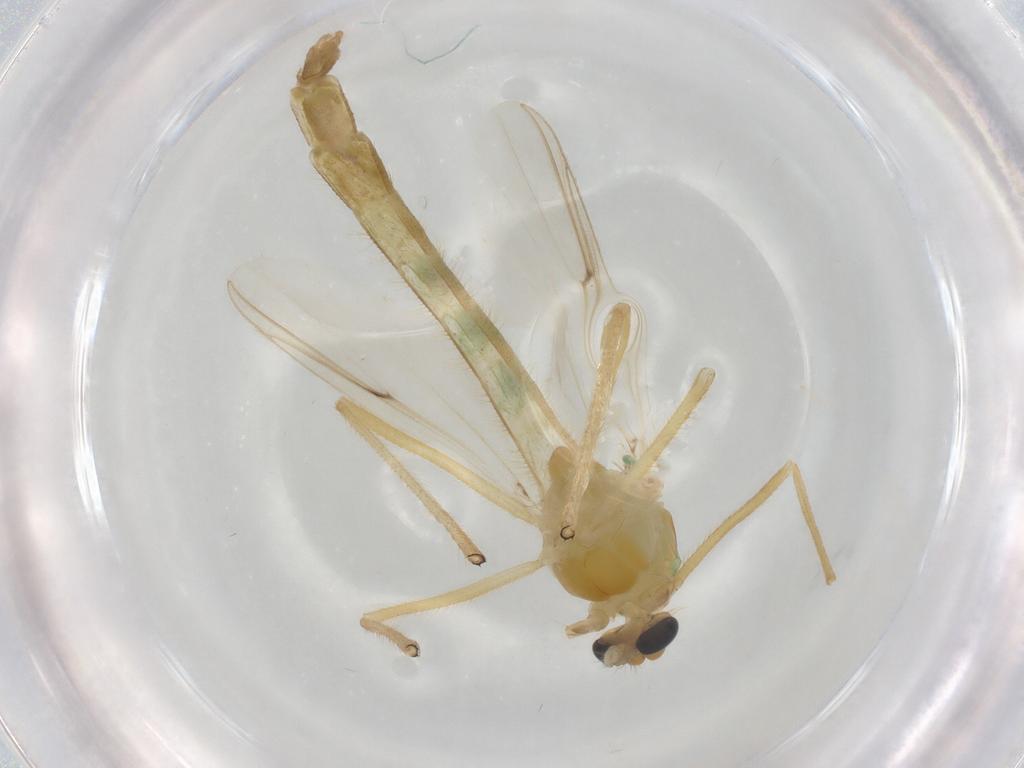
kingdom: Animalia
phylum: Arthropoda
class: Insecta
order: Diptera
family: Chironomidae
